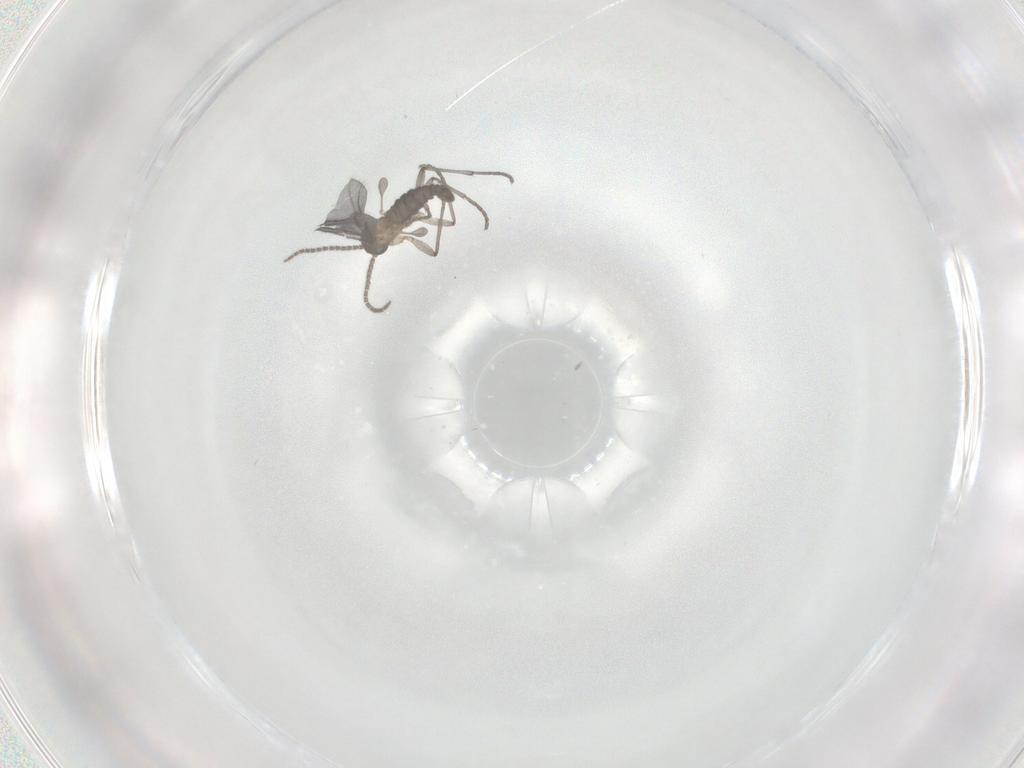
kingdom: Animalia
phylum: Arthropoda
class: Insecta
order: Diptera
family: Sciaridae
